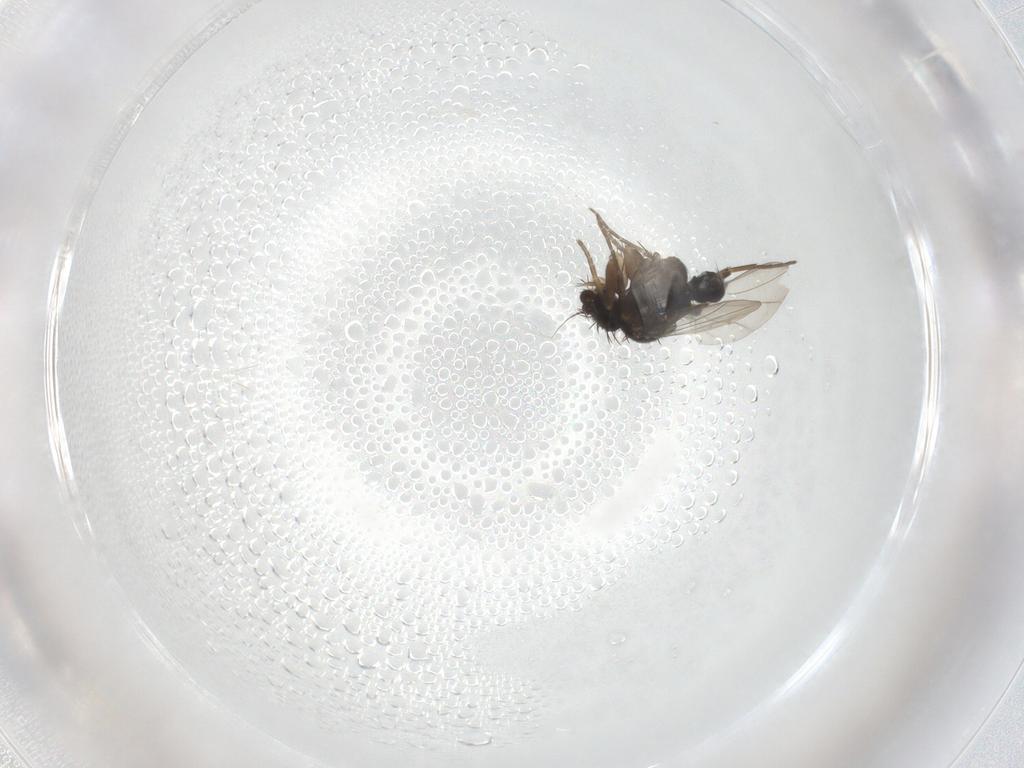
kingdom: Animalia
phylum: Arthropoda
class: Insecta
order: Diptera
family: Phoridae
